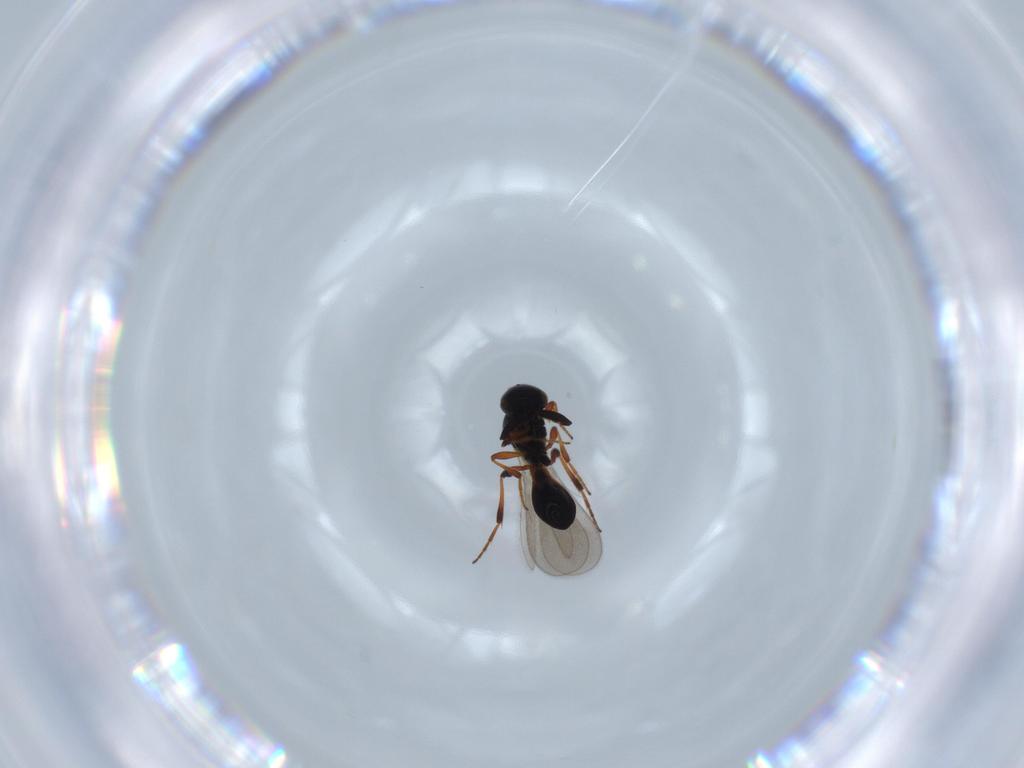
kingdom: Animalia
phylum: Arthropoda
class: Insecta
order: Hymenoptera
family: Platygastridae
